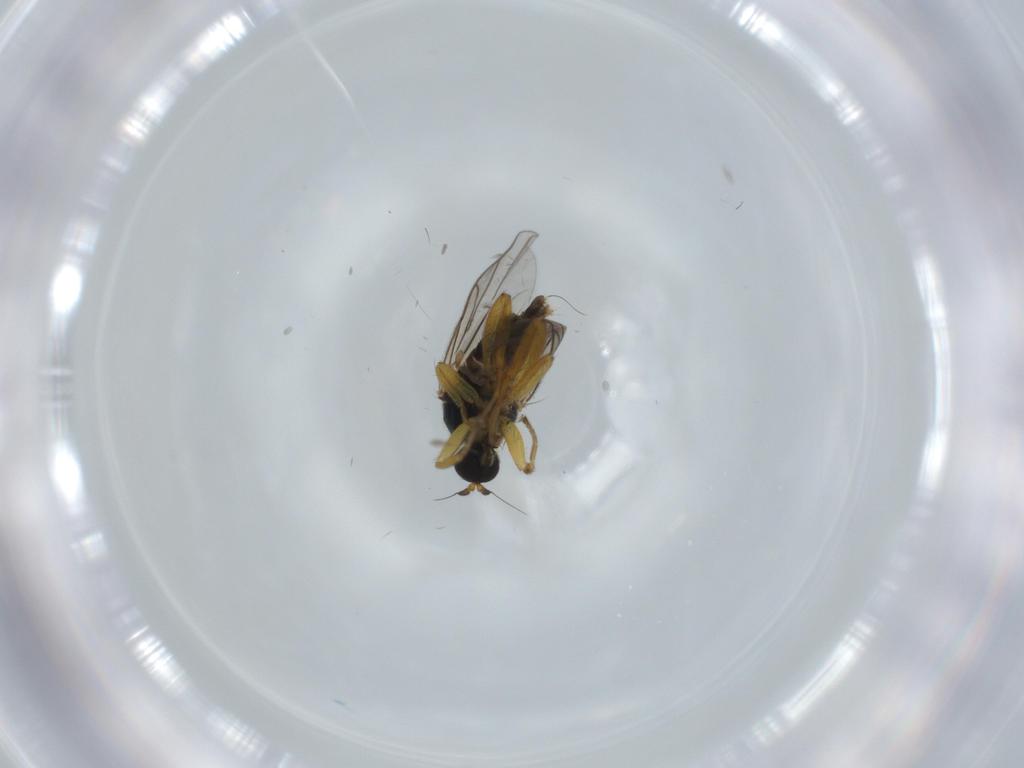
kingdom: Animalia
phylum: Arthropoda
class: Insecta
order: Diptera
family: Hybotidae
